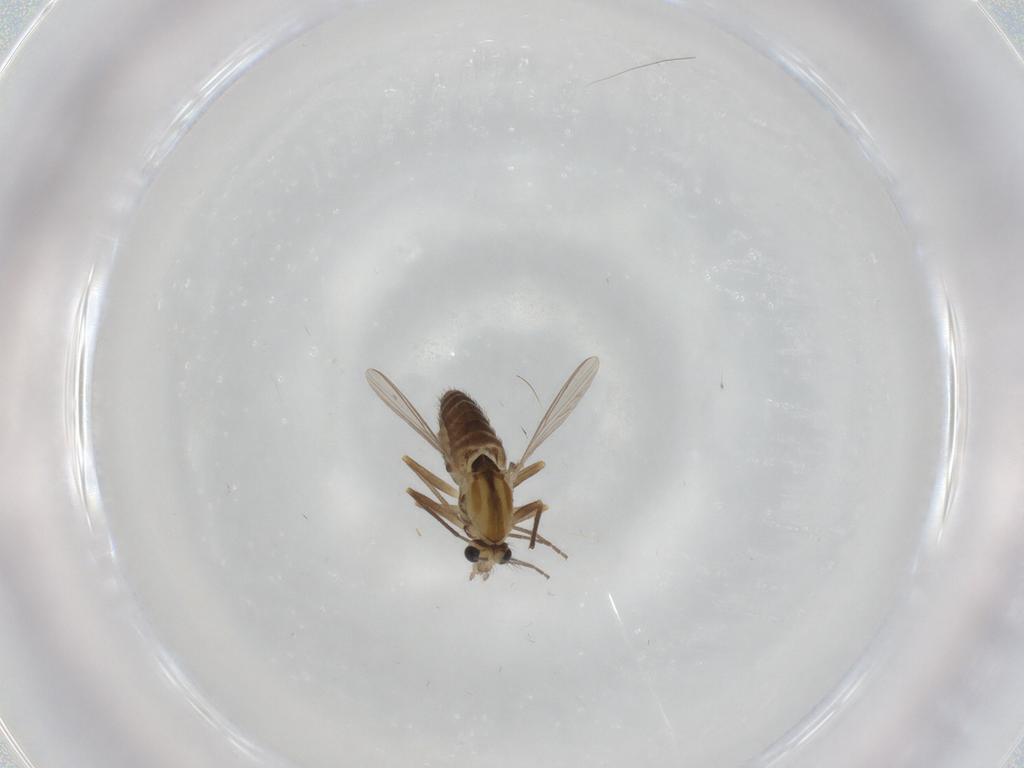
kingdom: Animalia
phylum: Arthropoda
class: Insecta
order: Diptera
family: Chironomidae
